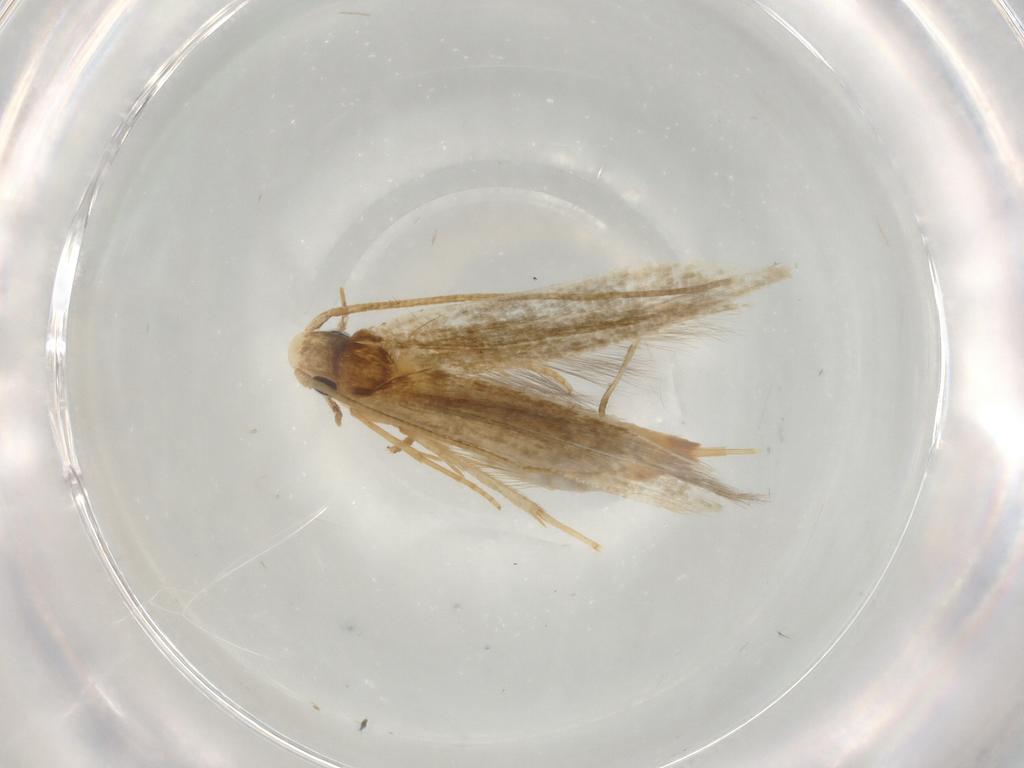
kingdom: Animalia
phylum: Arthropoda
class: Insecta
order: Lepidoptera
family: Tineidae
